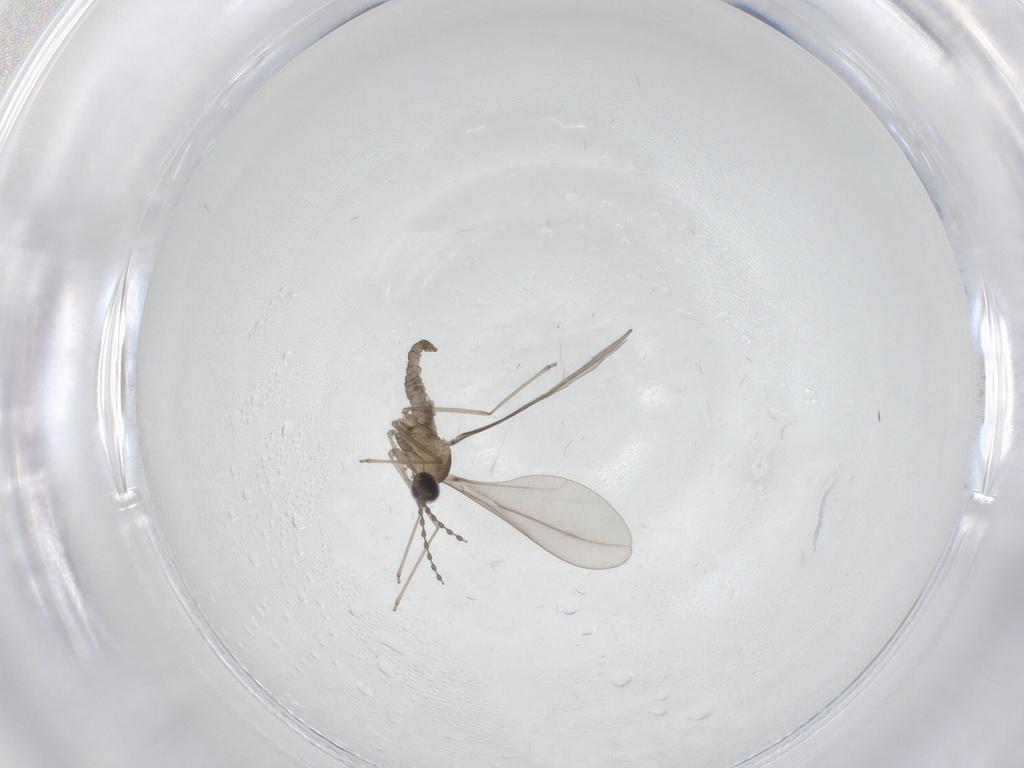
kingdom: Animalia
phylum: Arthropoda
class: Insecta
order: Diptera
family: Cecidomyiidae
